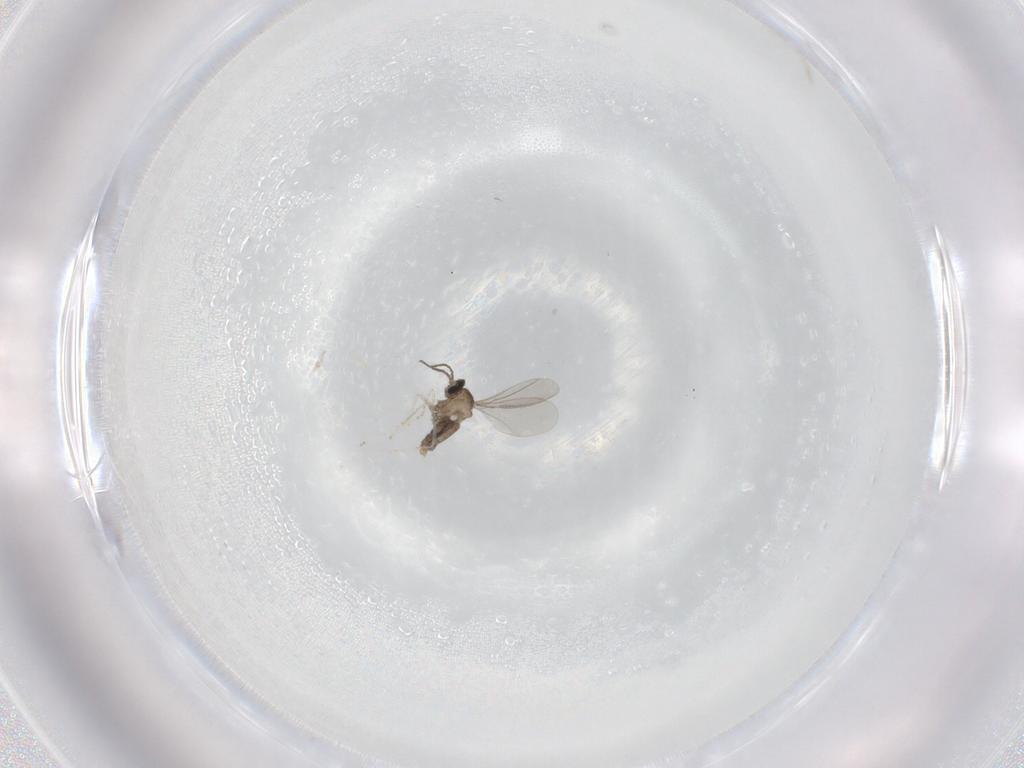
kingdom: Animalia
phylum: Arthropoda
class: Insecta
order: Diptera
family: Cecidomyiidae
